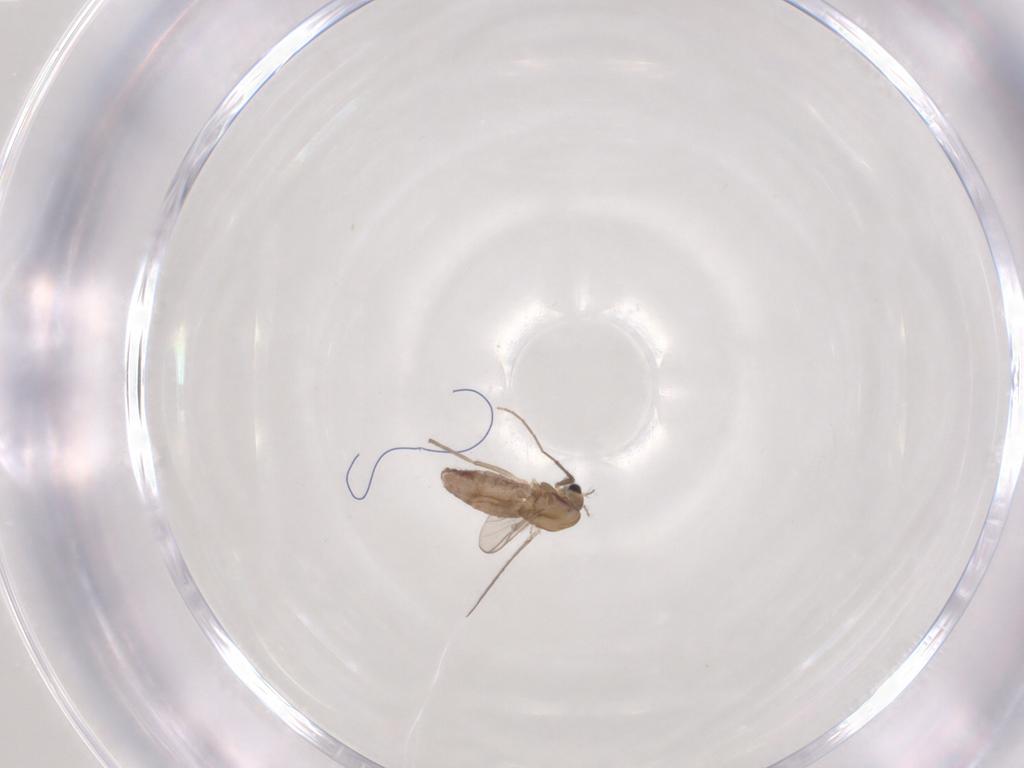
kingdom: Animalia
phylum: Arthropoda
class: Insecta
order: Diptera
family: Chironomidae
